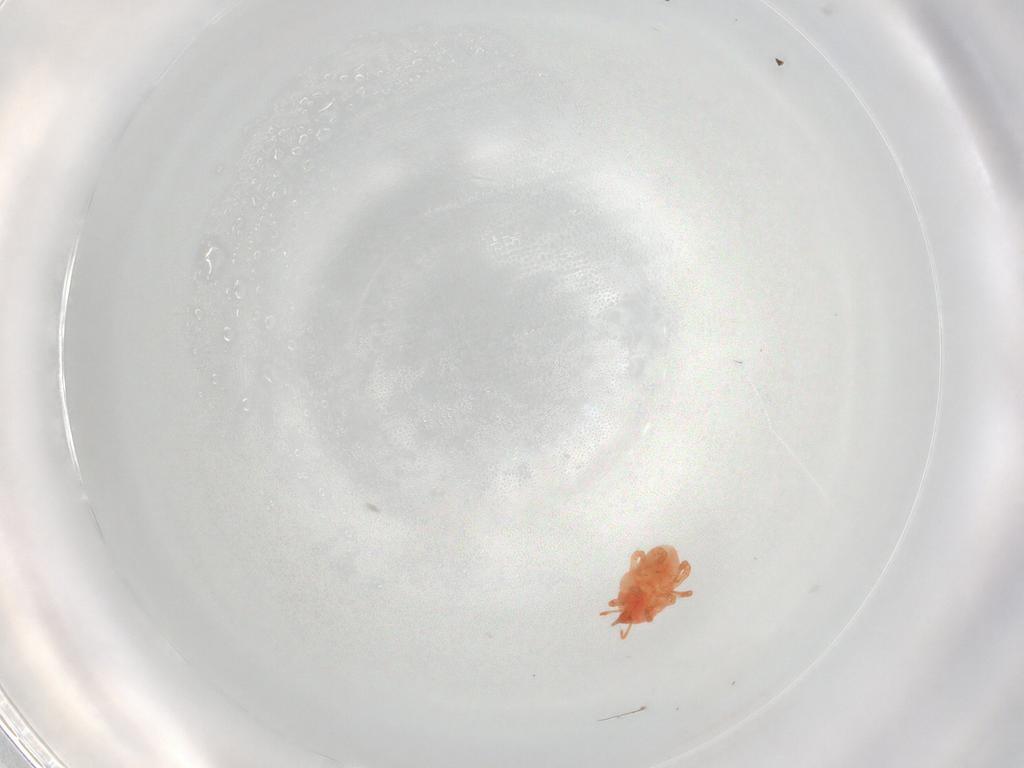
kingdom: Animalia
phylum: Arthropoda
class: Arachnida
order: Trombidiformes
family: Bdellidae
